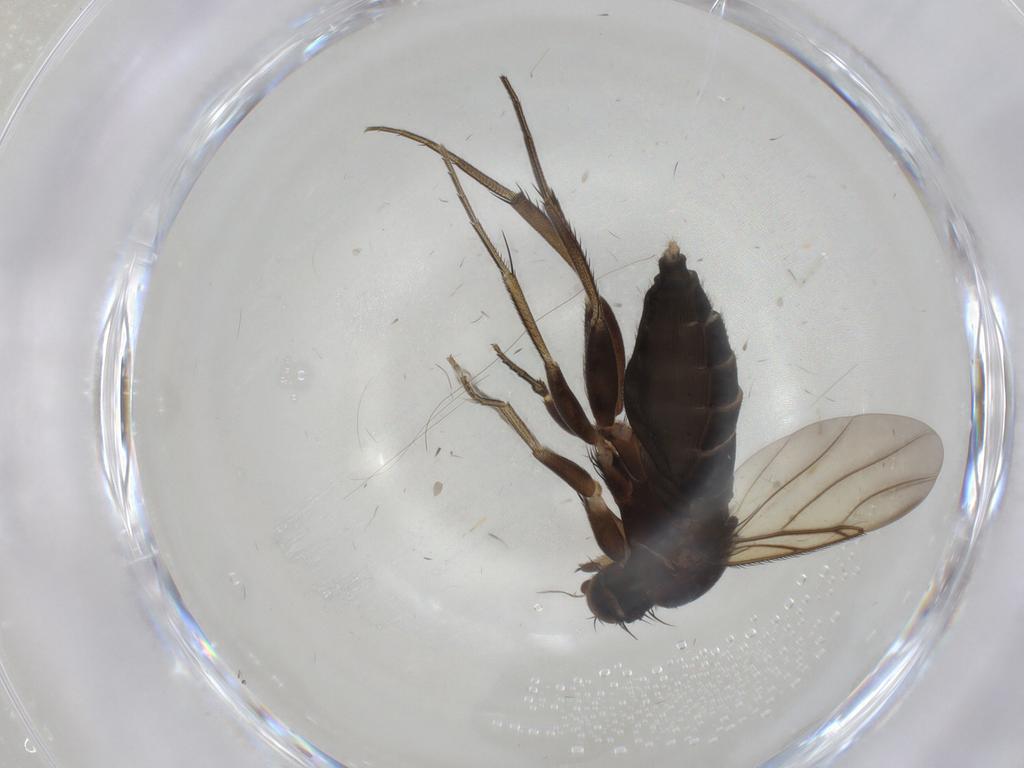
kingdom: Animalia
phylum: Arthropoda
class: Insecta
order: Diptera
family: Phoridae
